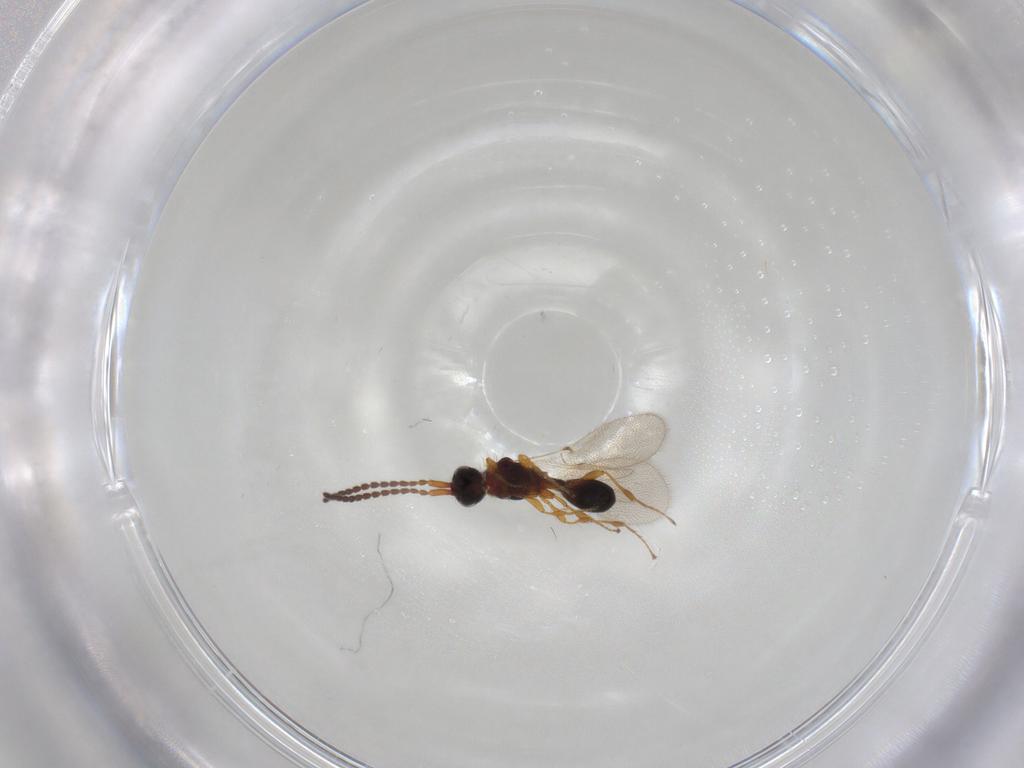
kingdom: Animalia
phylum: Arthropoda
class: Insecta
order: Hymenoptera
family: Diapriidae
